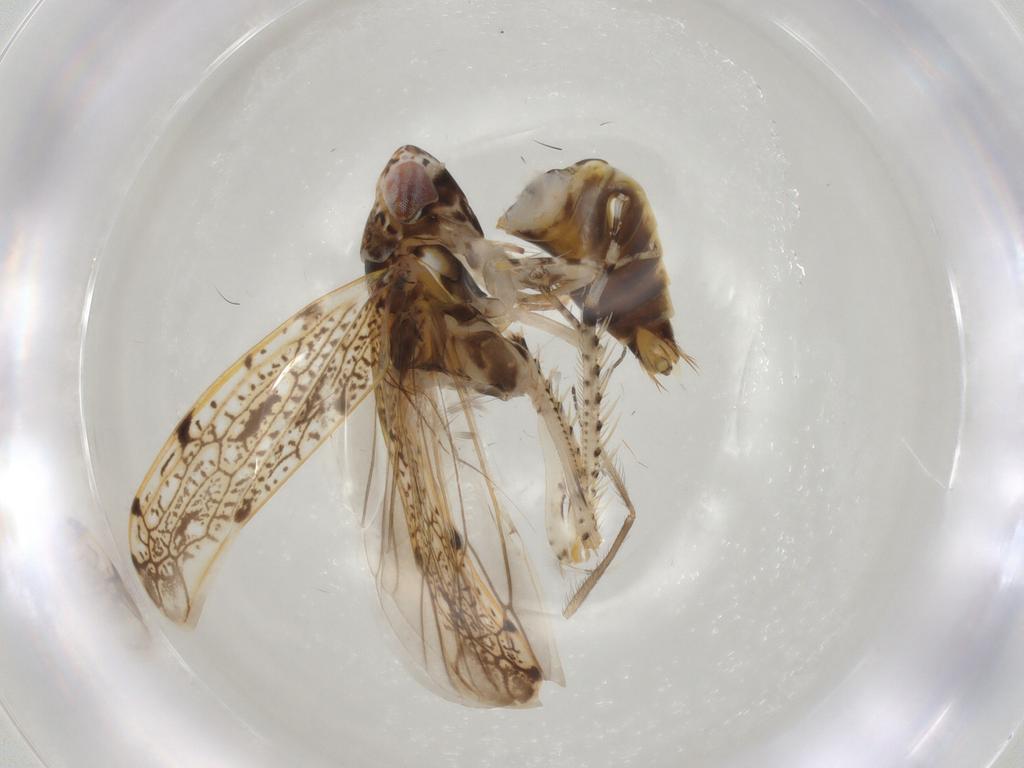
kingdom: Animalia
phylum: Arthropoda
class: Insecta
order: Hemiptera
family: Cicadellidae
